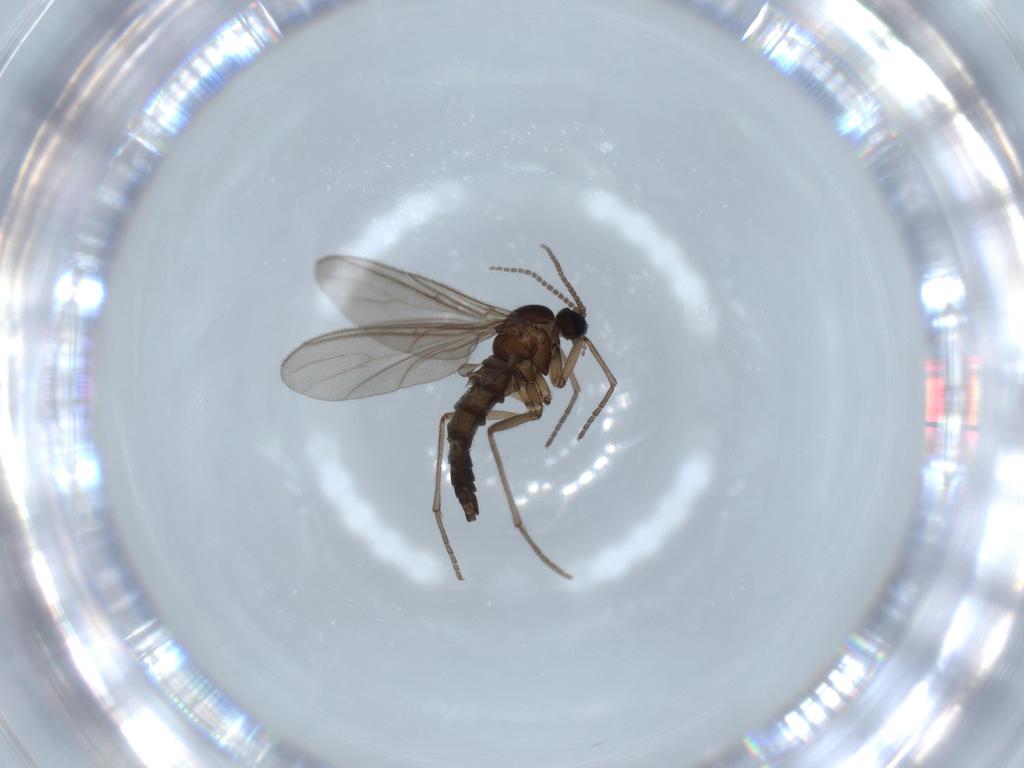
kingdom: Animalia
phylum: Arthropoda
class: Insecta
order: Diptera
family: Sciaridae
